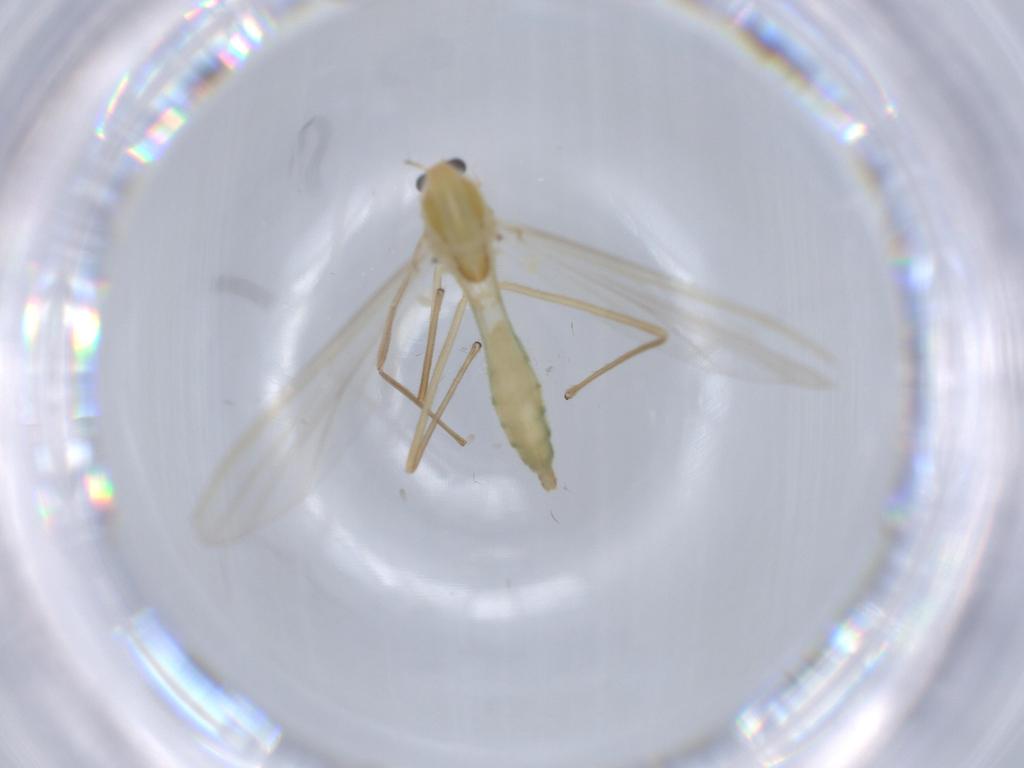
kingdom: Animalia
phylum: Arthropoda
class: Insecta
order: Diptera
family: Chironomidae
